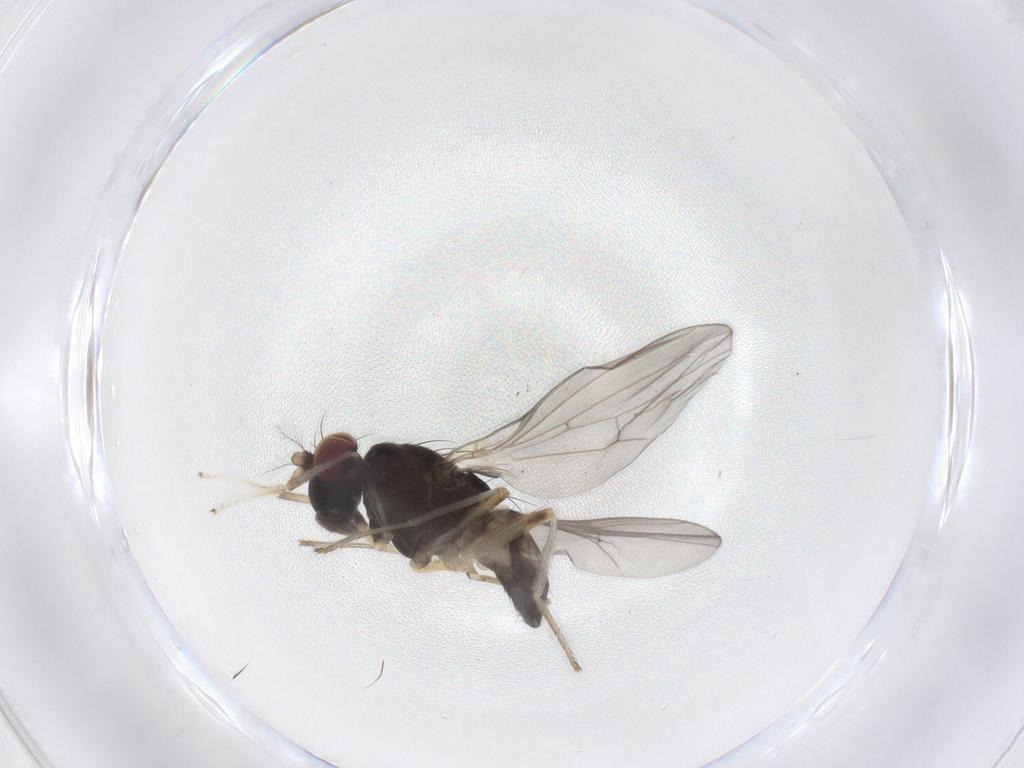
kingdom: Animalia
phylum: Arthropoda
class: Insecta
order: Diptera
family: Lauxaniidae
